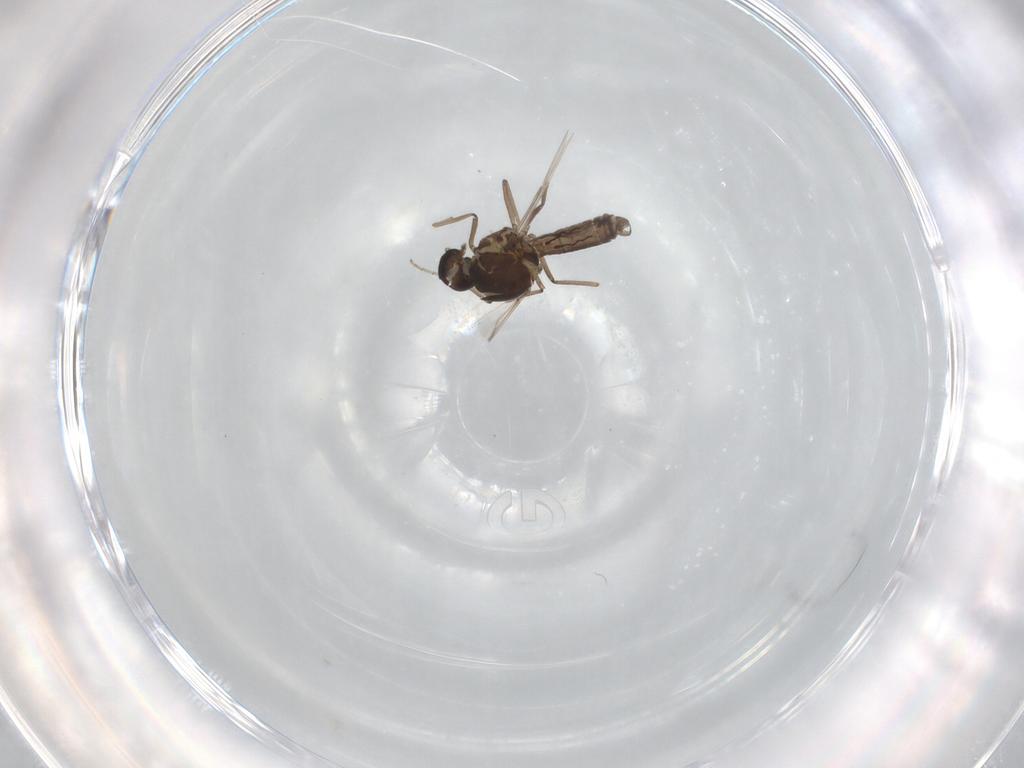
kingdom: Animalia
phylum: Arthropoda
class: Insecta
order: Diptera
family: Ceratopogonidae
